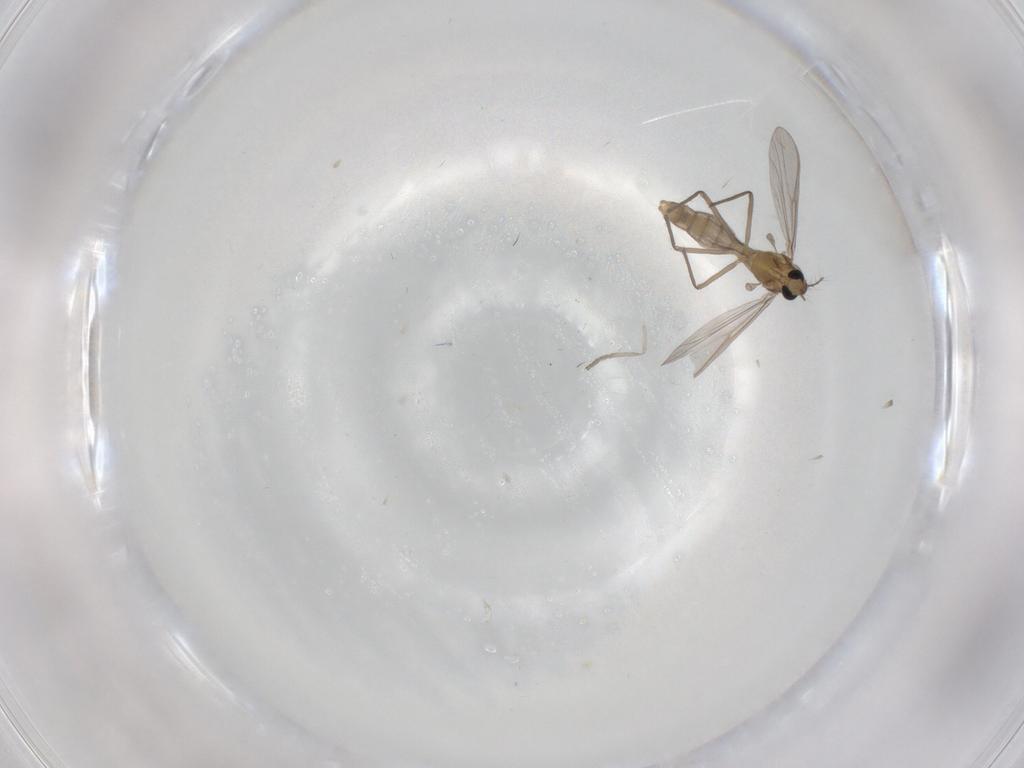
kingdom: Animalia
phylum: Arthropoda
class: Insecta
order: Diptera
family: Psychodidae
